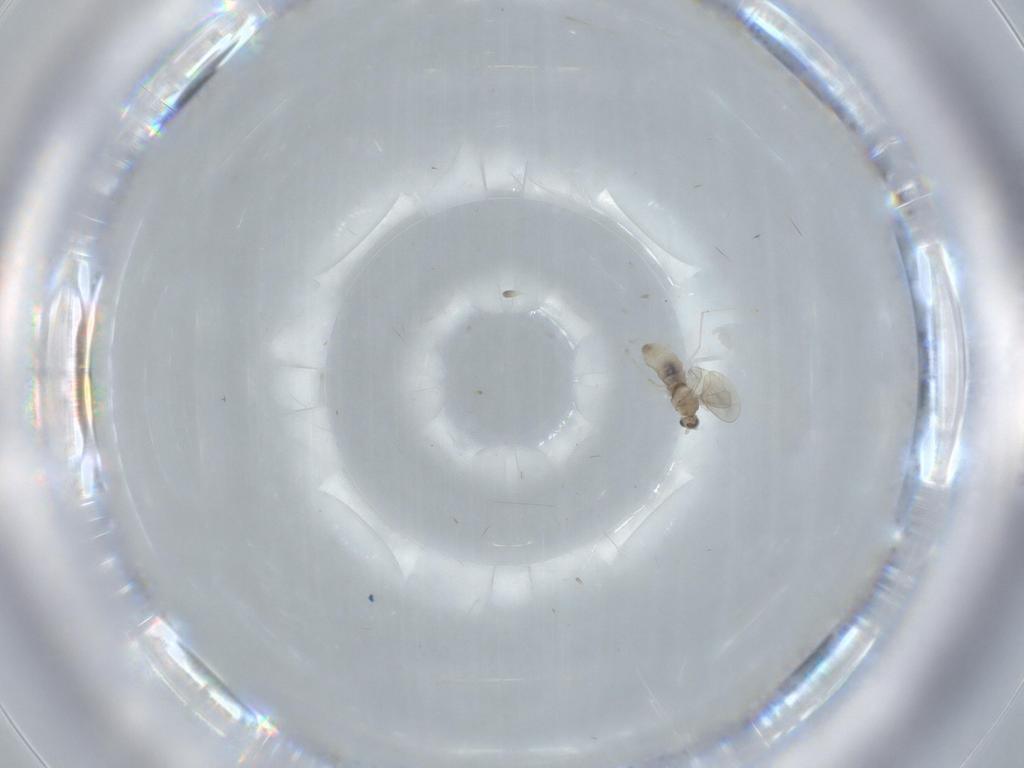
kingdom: Animalia
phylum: Arthropoda
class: Insecta
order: Diptera
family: Cecidomyiidae
